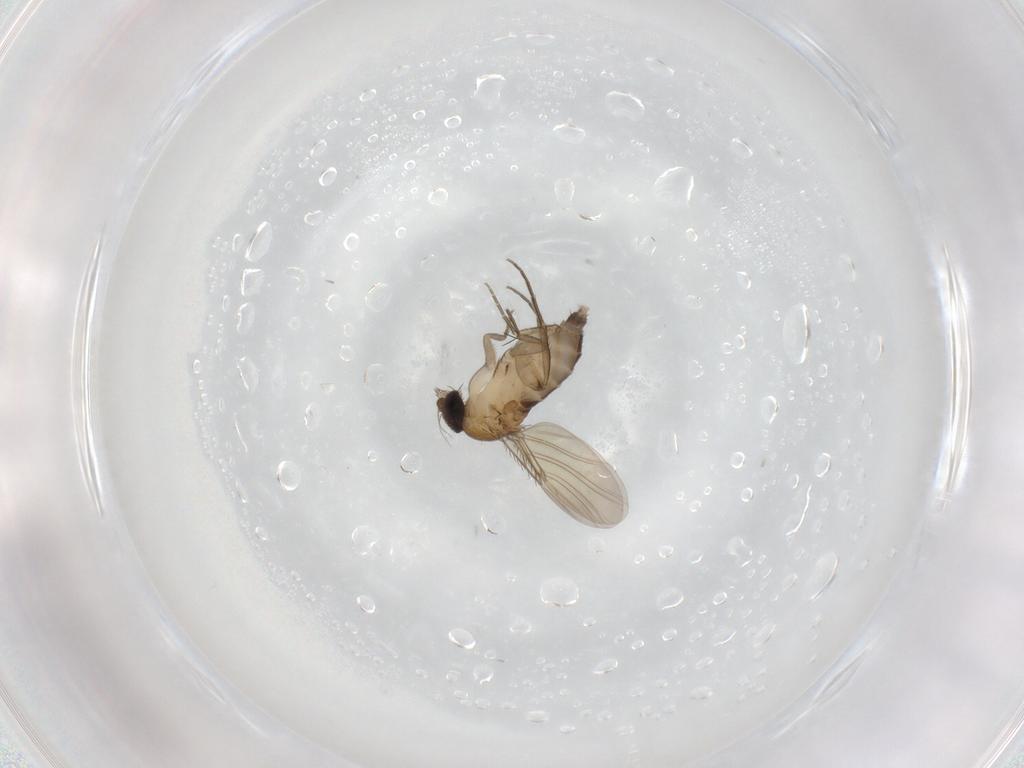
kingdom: Animalia
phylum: Arthropoda
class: Insecta
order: Diptera
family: Phoridae
